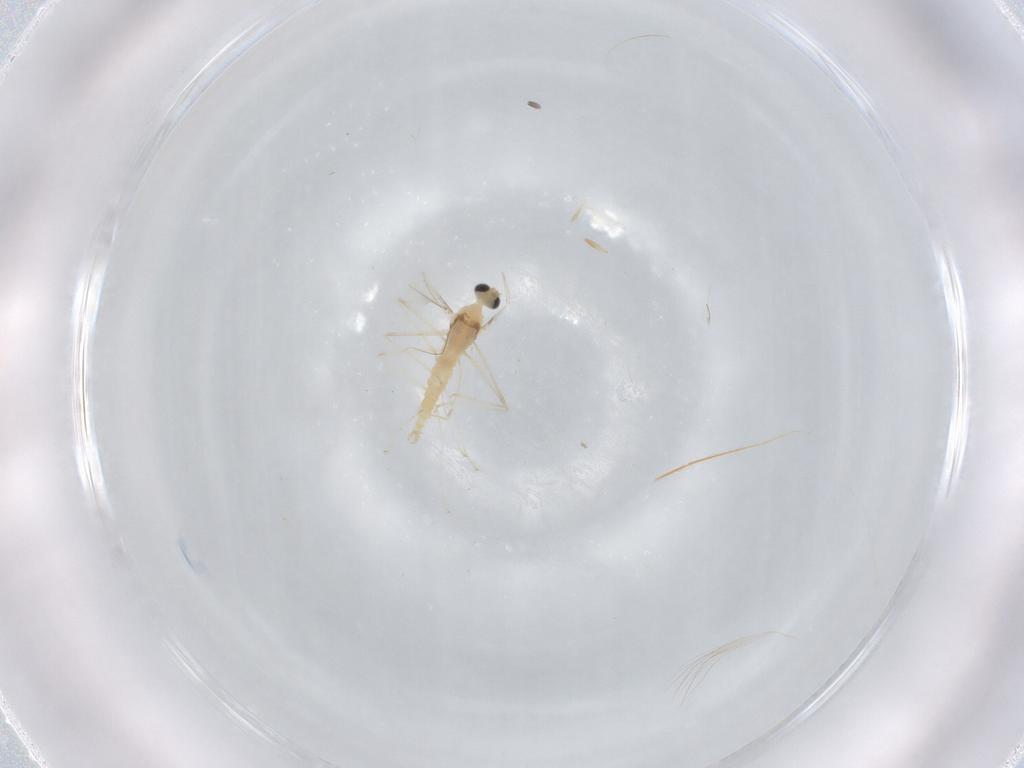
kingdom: Animalia
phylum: Arthropoda
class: Insecta
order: Diptera
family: Cecidomyiidae
